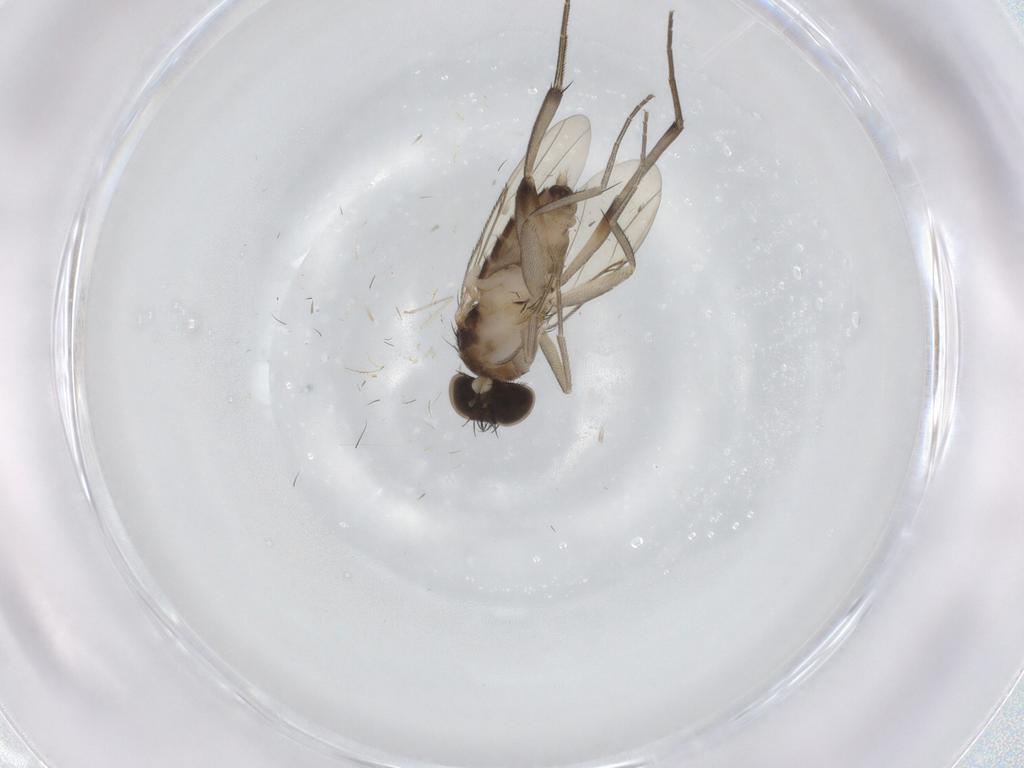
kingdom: Animalia
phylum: Arthropoda
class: Insecta
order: Diptera
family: Phoridae
